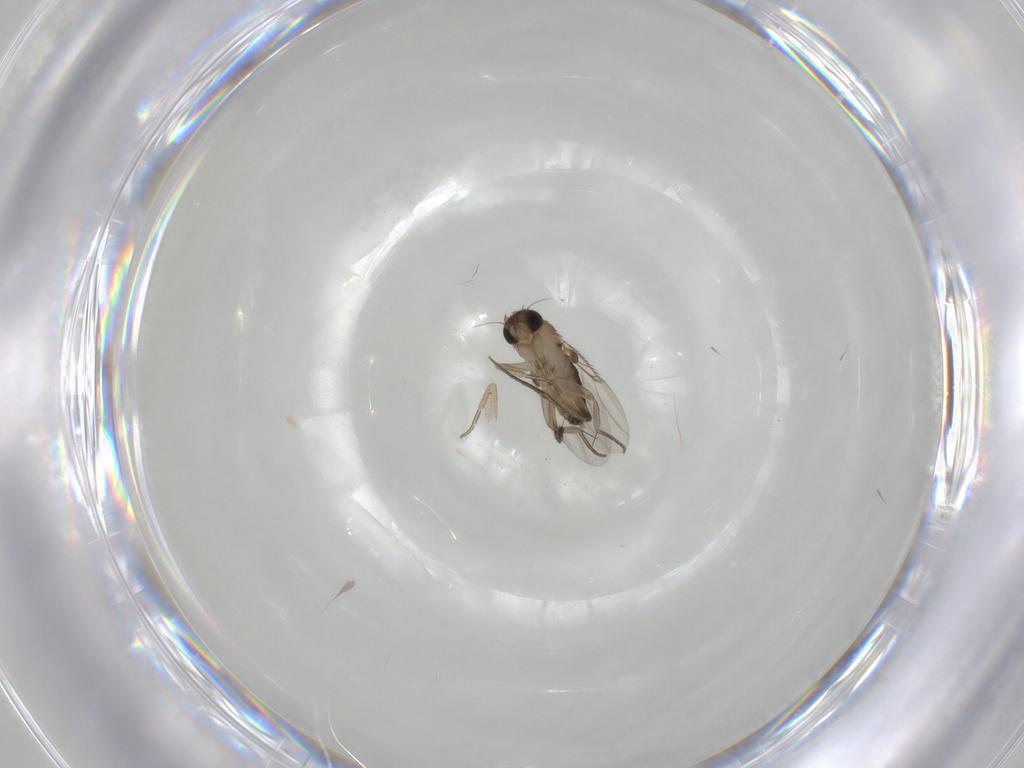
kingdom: Animalia
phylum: Arthropoda
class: Insecta
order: Diptera
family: Phoridae
